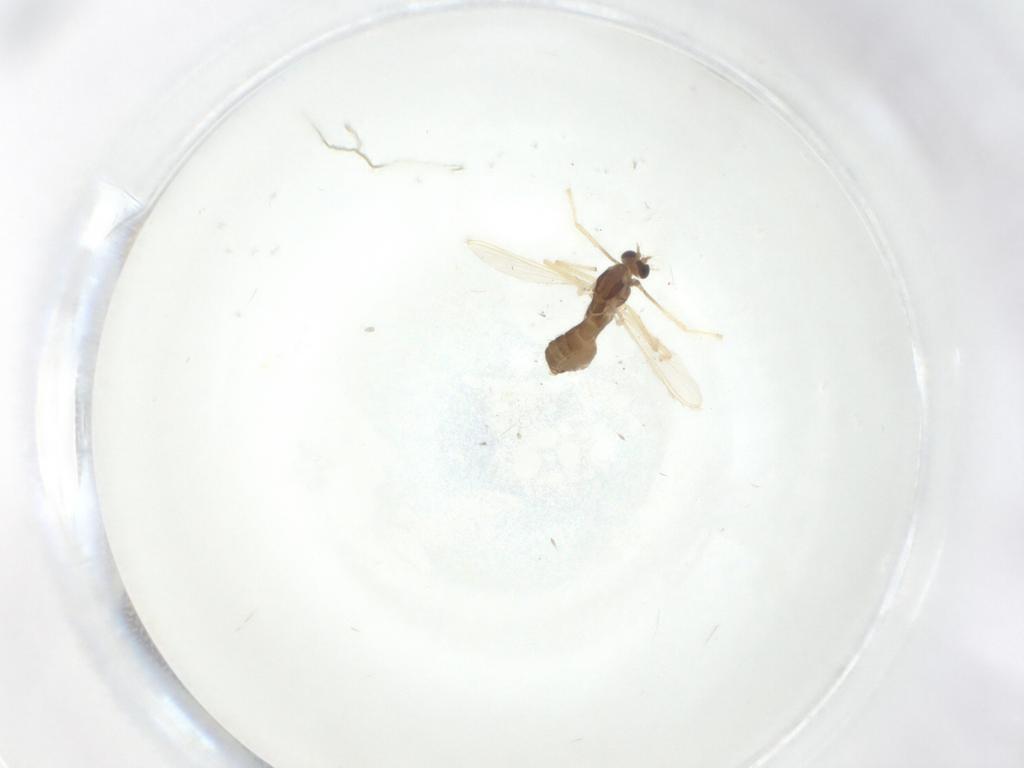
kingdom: Animalia
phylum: Arthropoda
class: Insecta
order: Diptera
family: Chironomidae
